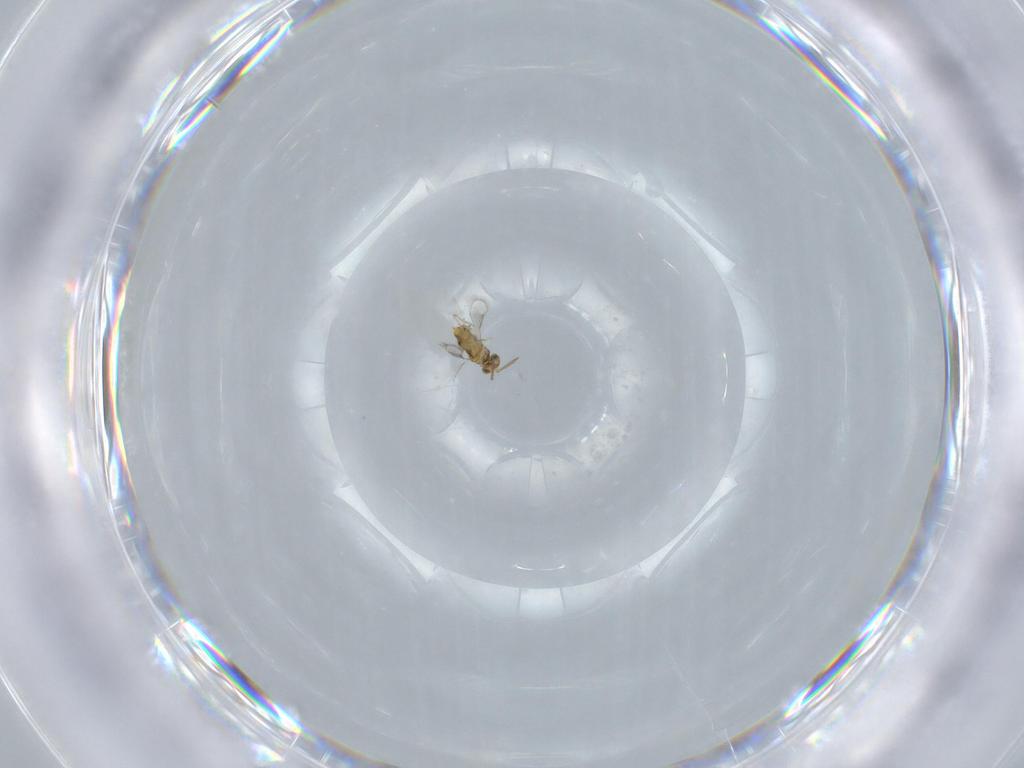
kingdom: Animalia
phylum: Arthropoda
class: Insecta
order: Hymenoptera
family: Aphelinidae
